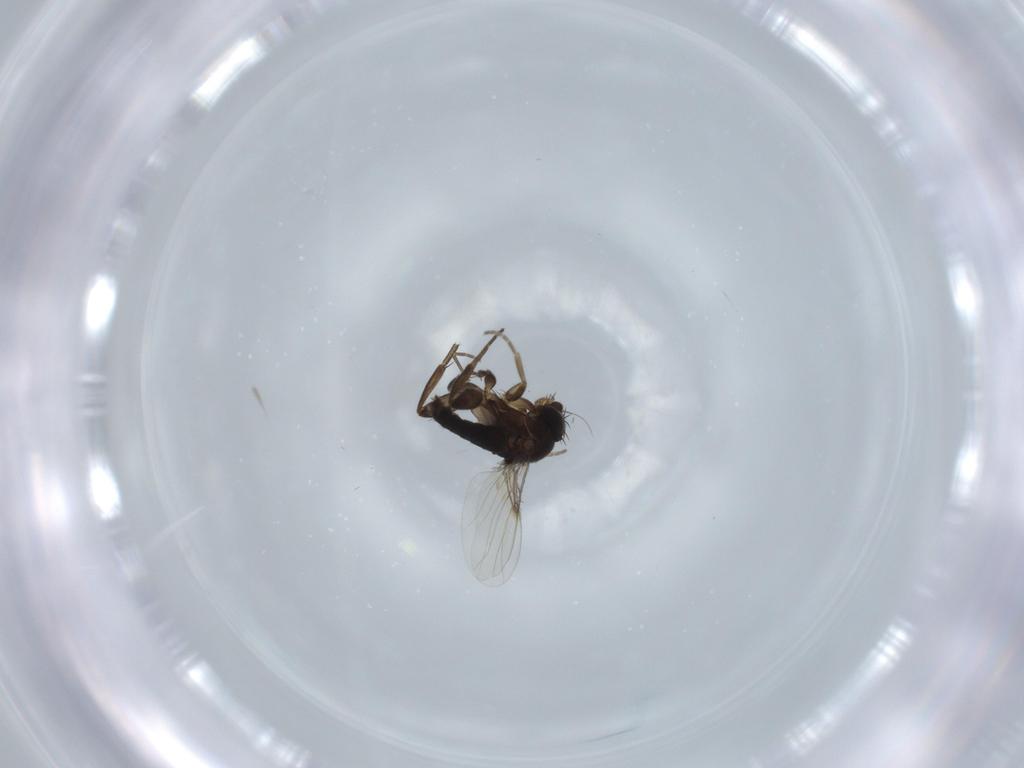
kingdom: Animalia
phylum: Arthropoda
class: Insecta
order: Diptera
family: Phoridae
